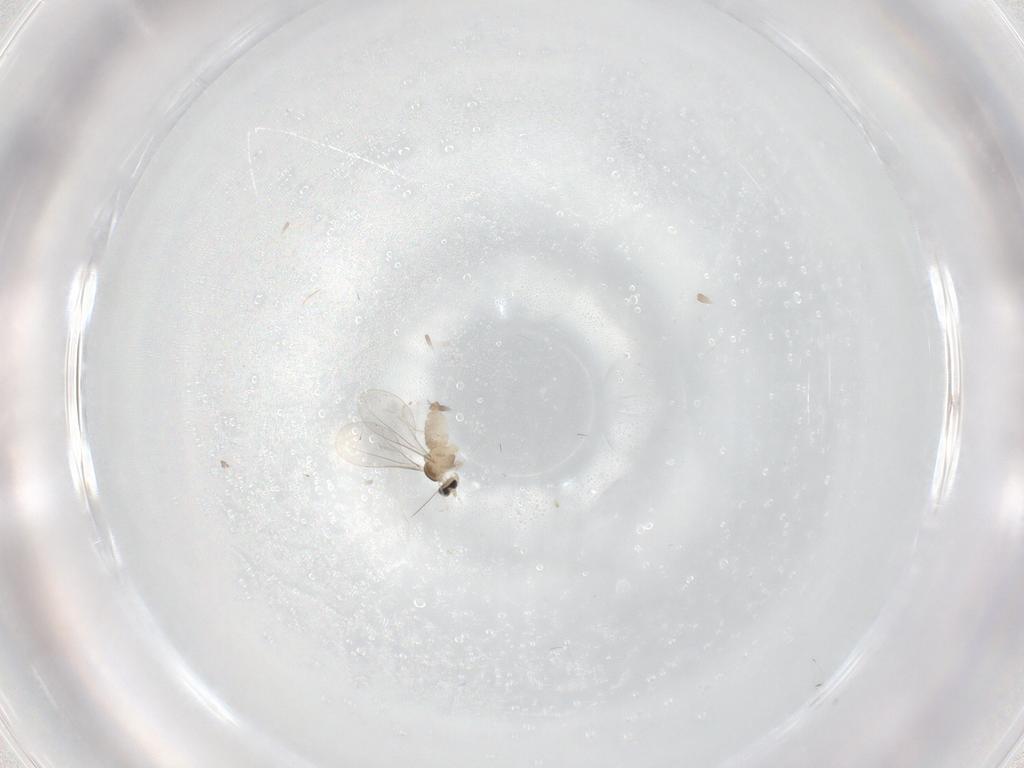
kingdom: Animalia
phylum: Arthropoda
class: Insecta
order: Diptera
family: Cecidomyiidae
